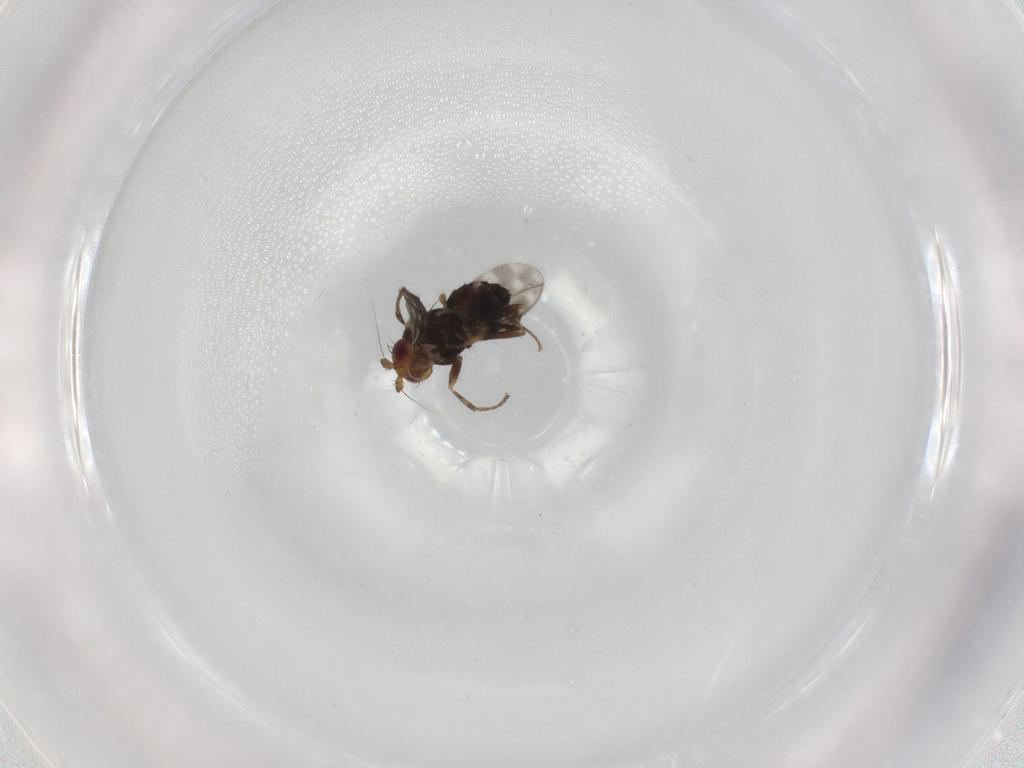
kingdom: Animalia
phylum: Arthropoda
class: Insecta
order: Diptera
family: Sphaeroceridae
